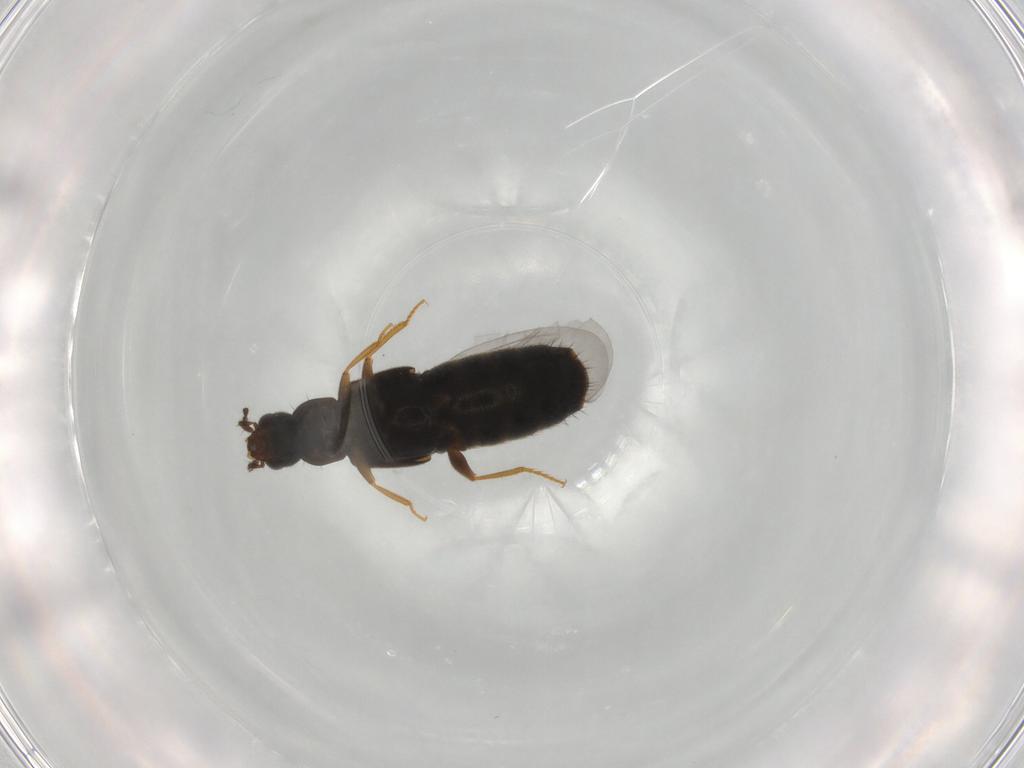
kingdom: Animalia
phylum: Arthropoda
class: Insecta
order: Coleoptera
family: Staphylinidae
